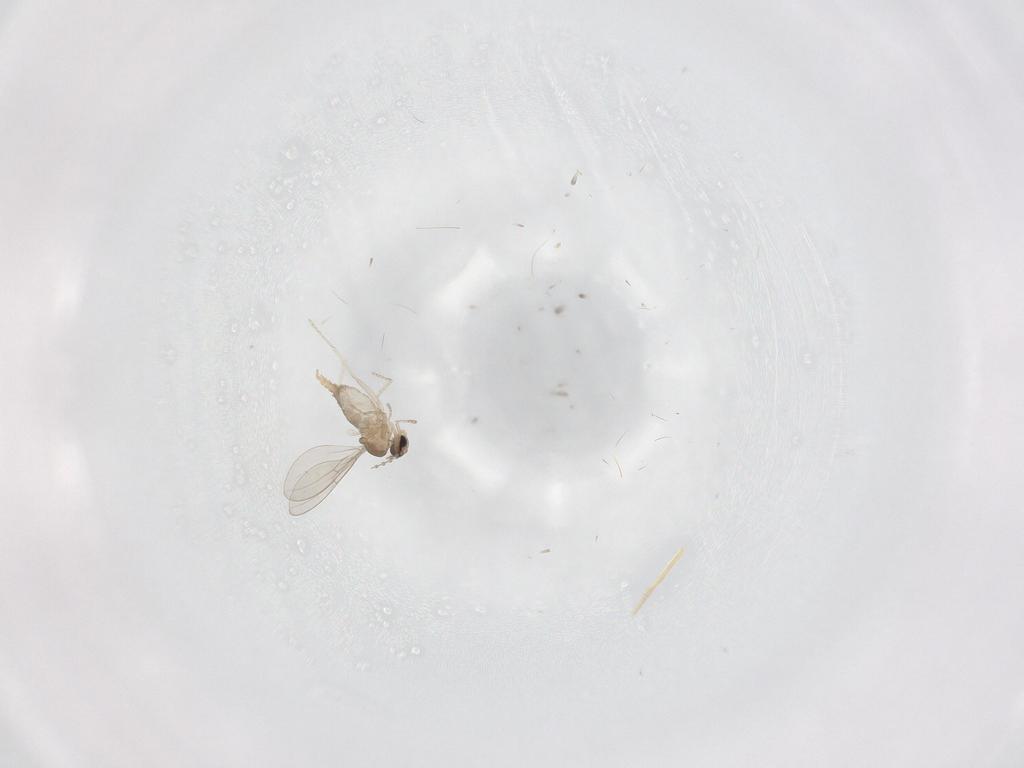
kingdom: Animalia
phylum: Arthropoda
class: Insecta
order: Diptera
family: Cecidomyiidae
